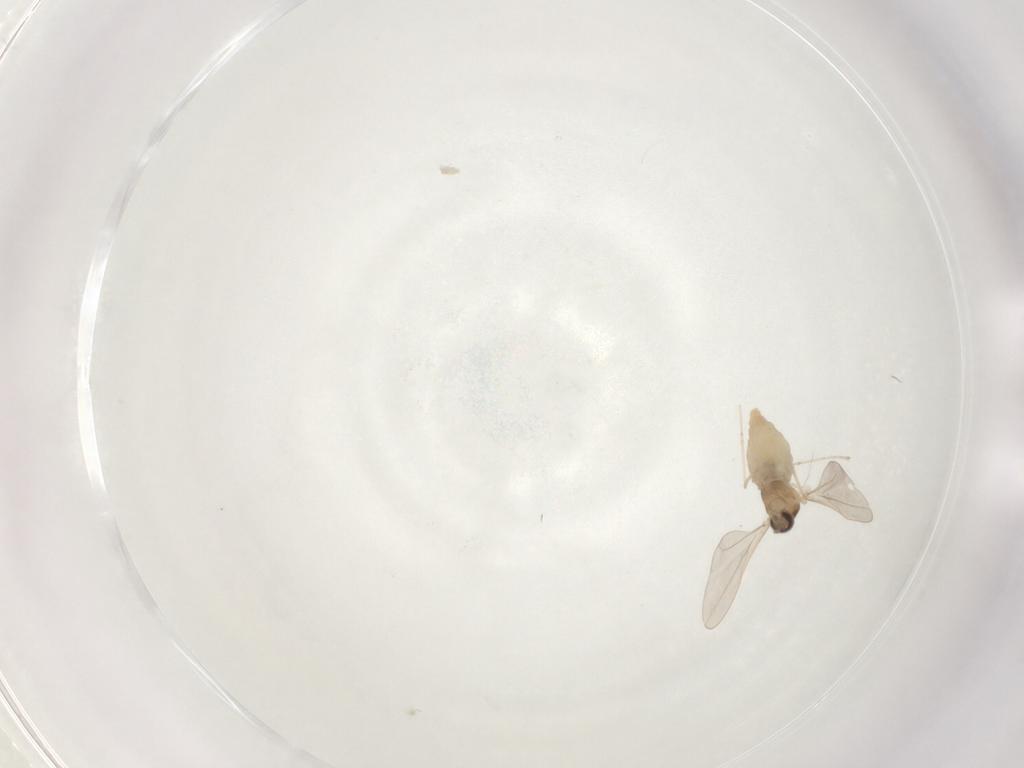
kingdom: Animalia
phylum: Arthropoda
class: Insecta
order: Diptera
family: Cecidomyiidae
